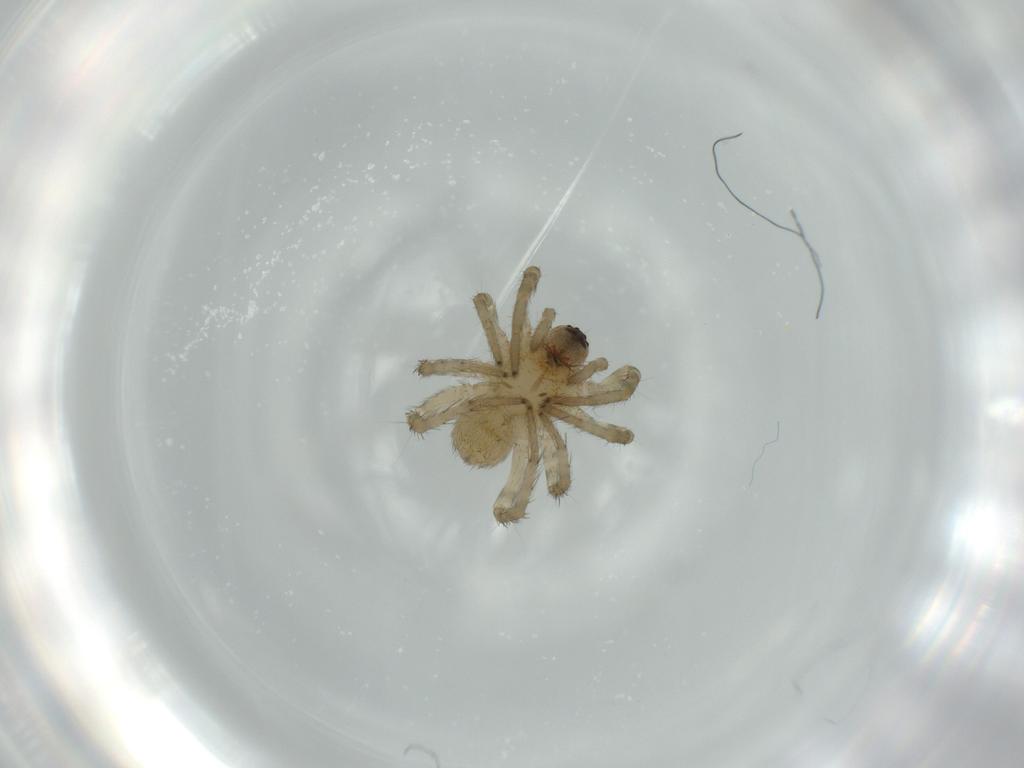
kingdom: Animalia
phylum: Arthropoda
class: Arachnida
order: Araneae
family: Lycosidae
